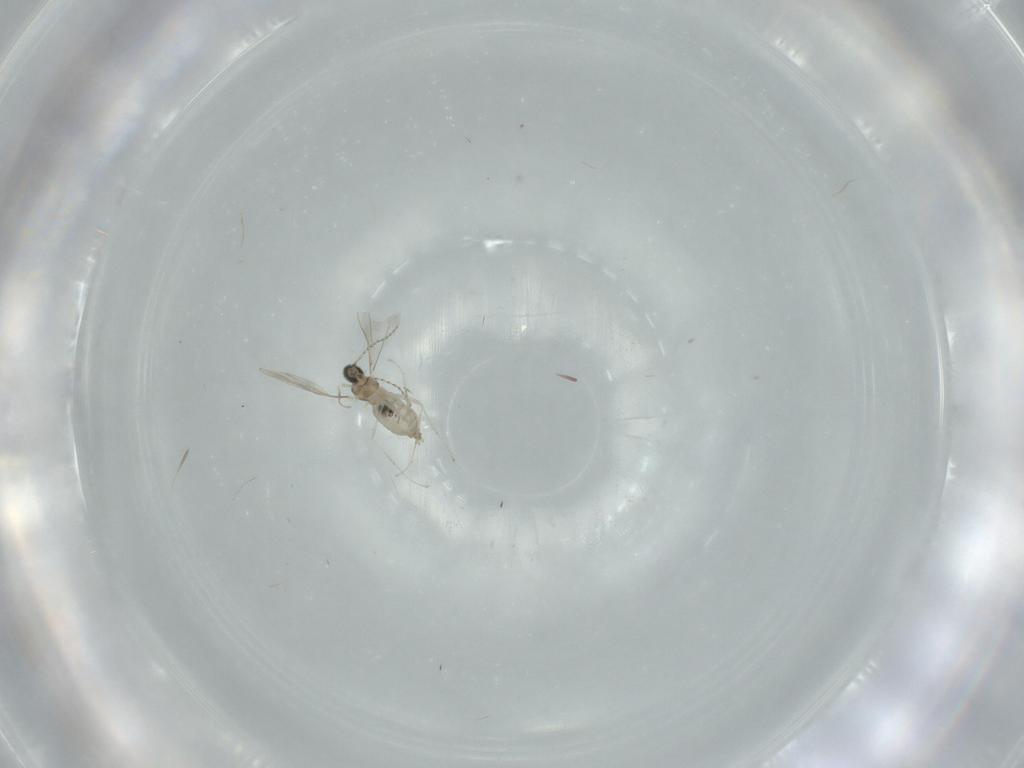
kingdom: Animalia
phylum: Arthropoda
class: Insecta
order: Diptera
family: Cecidomyiidae
